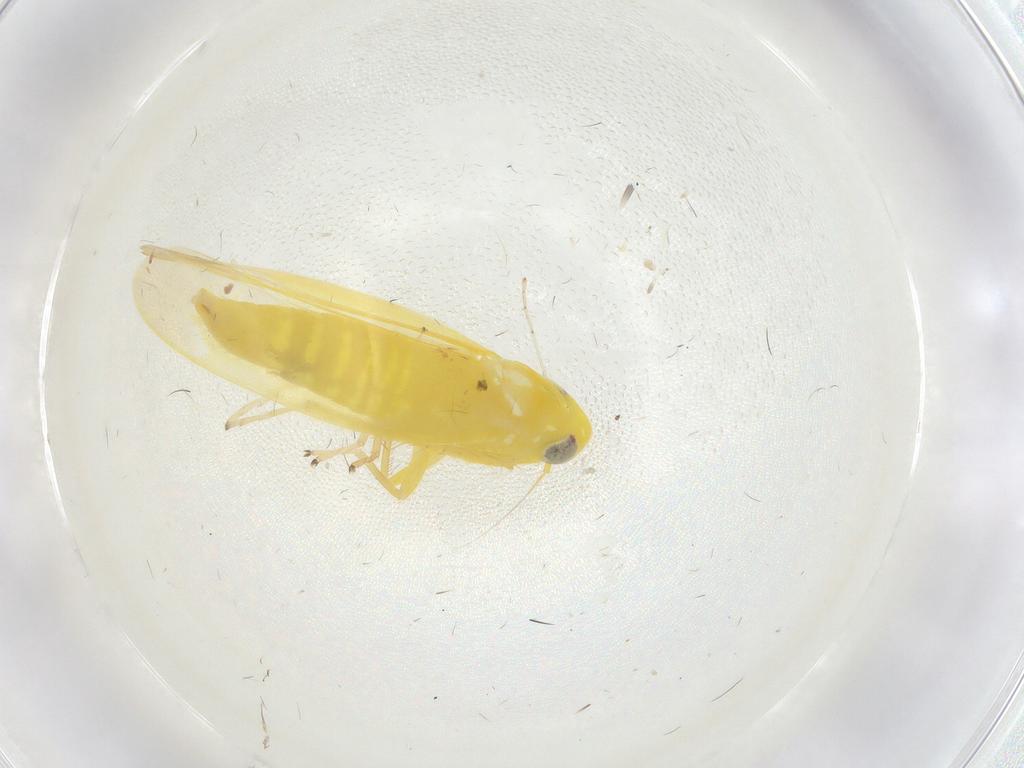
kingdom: Animalia
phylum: Arthropoda
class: Insecta
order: Hemiptera
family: Cicadellidae
